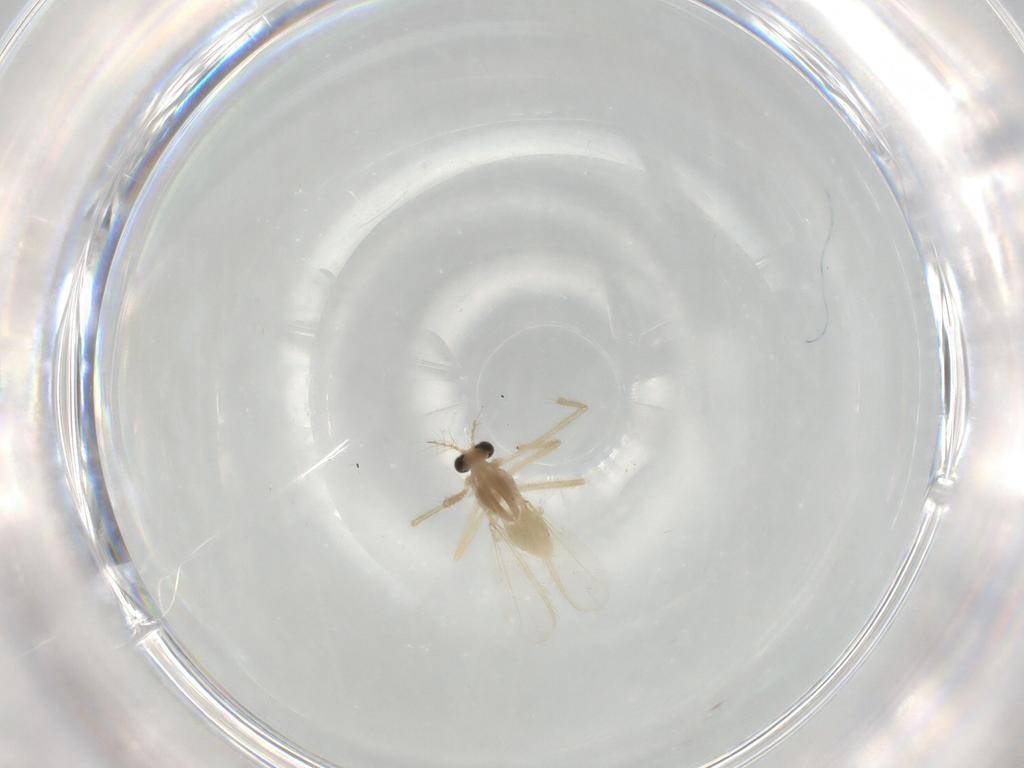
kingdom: Animalia
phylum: Arthropoda
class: Insecta
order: Diptera
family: Chironomidae
